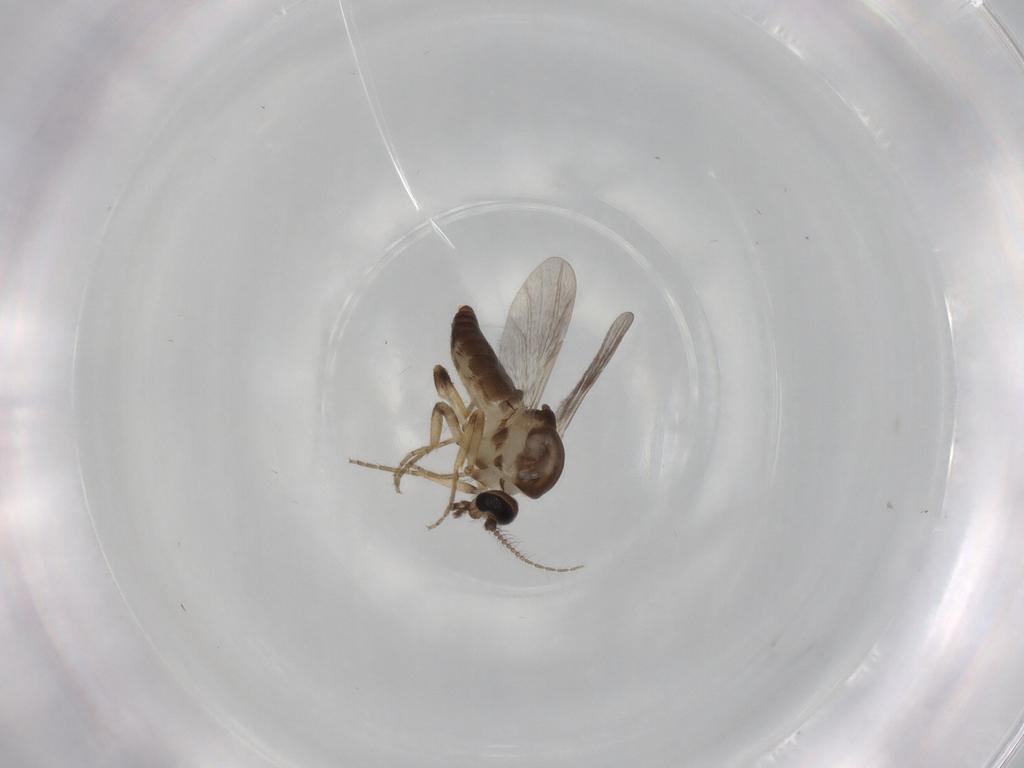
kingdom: Animalia
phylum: Arthropoda
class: Insecta
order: Diptera
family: Ceratopogonidae
